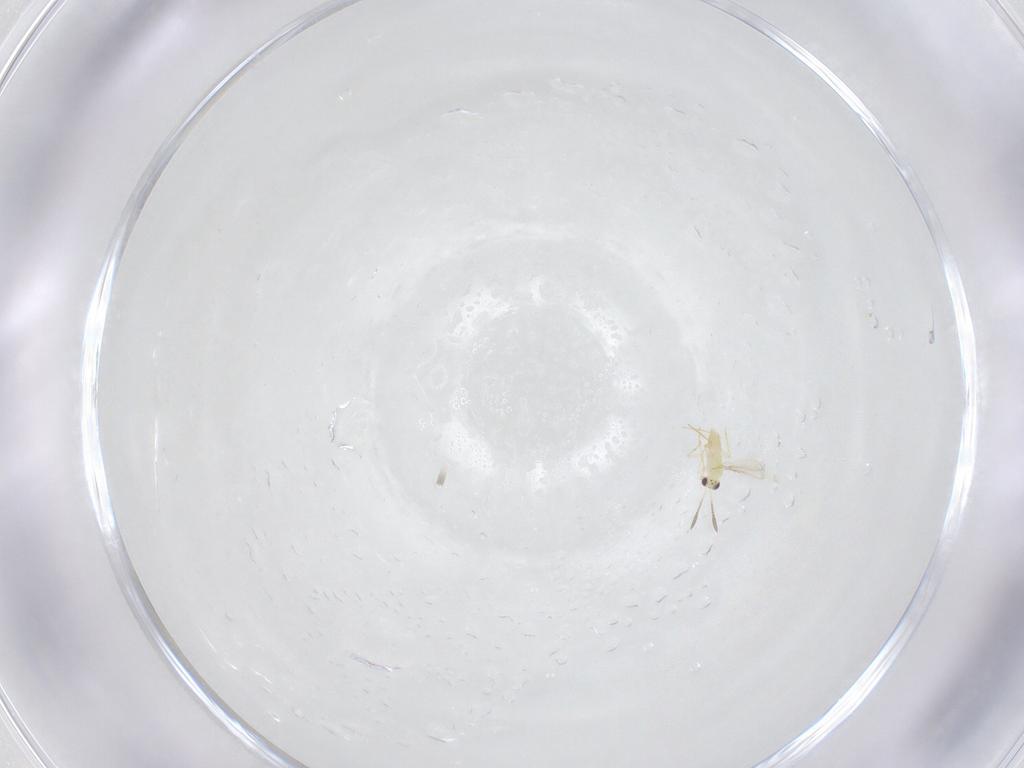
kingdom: Animalia
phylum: Arthropoda
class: Insecta
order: Hymenoptera
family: Mymaridae
